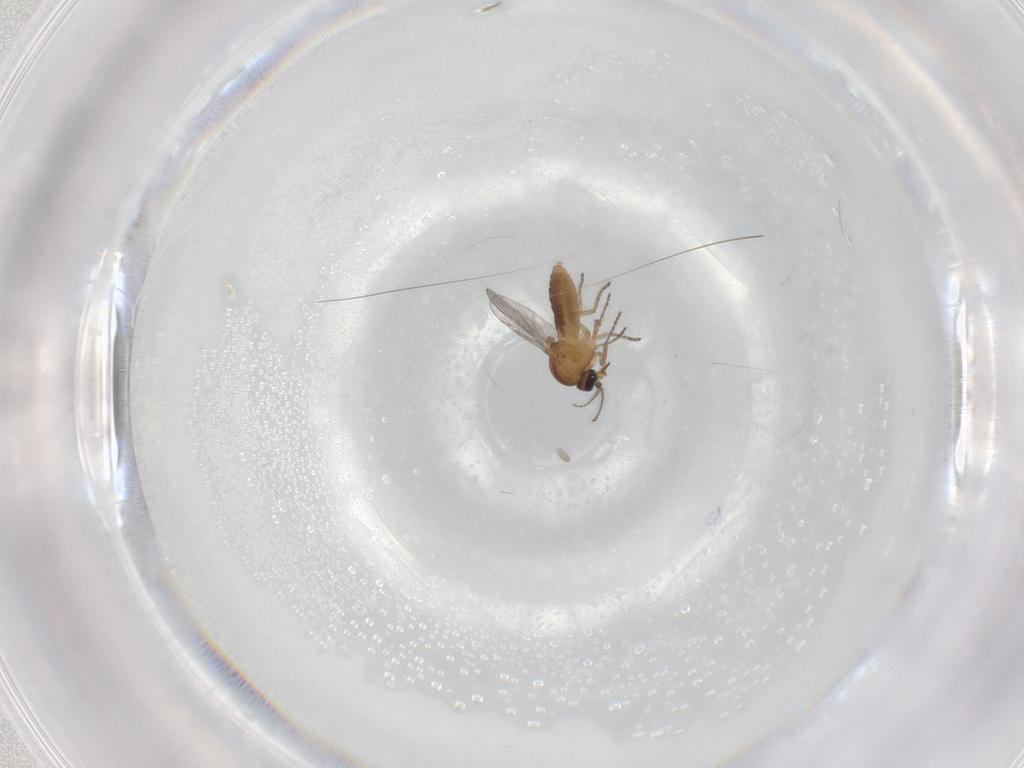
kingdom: Animalia
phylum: Arthropoda
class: Insecta
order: Diptera
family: Ceratopogonidae
